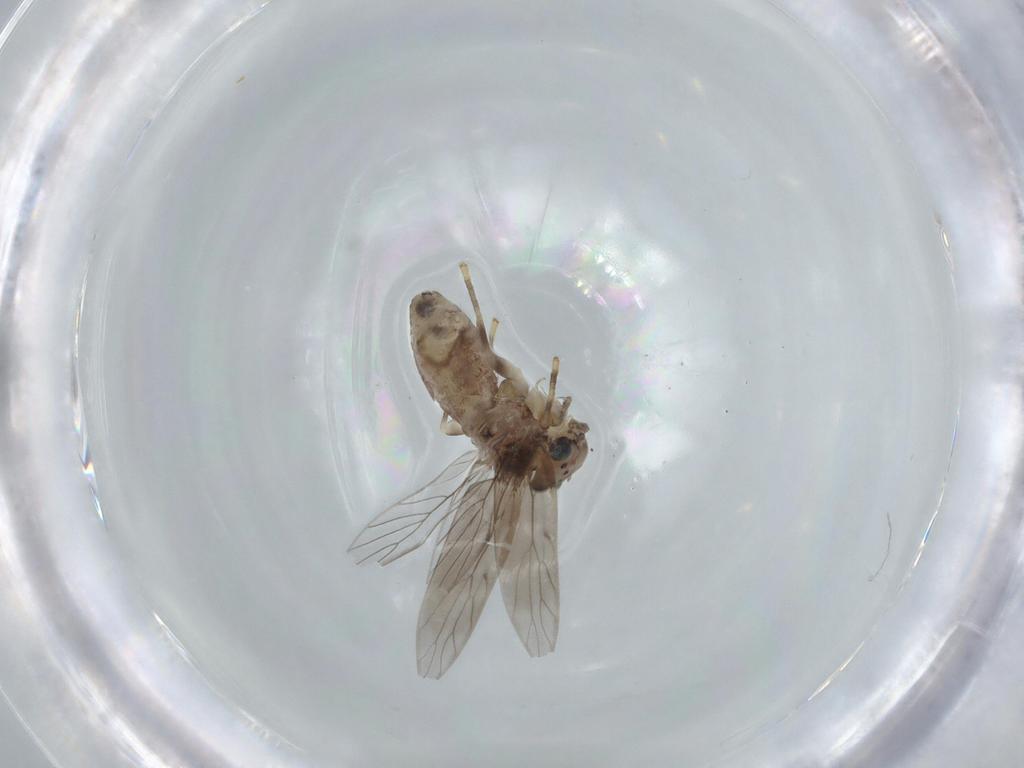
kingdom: Animalia
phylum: Arthropoda
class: Insecta
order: Psocodea
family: Lepidopsocidae
